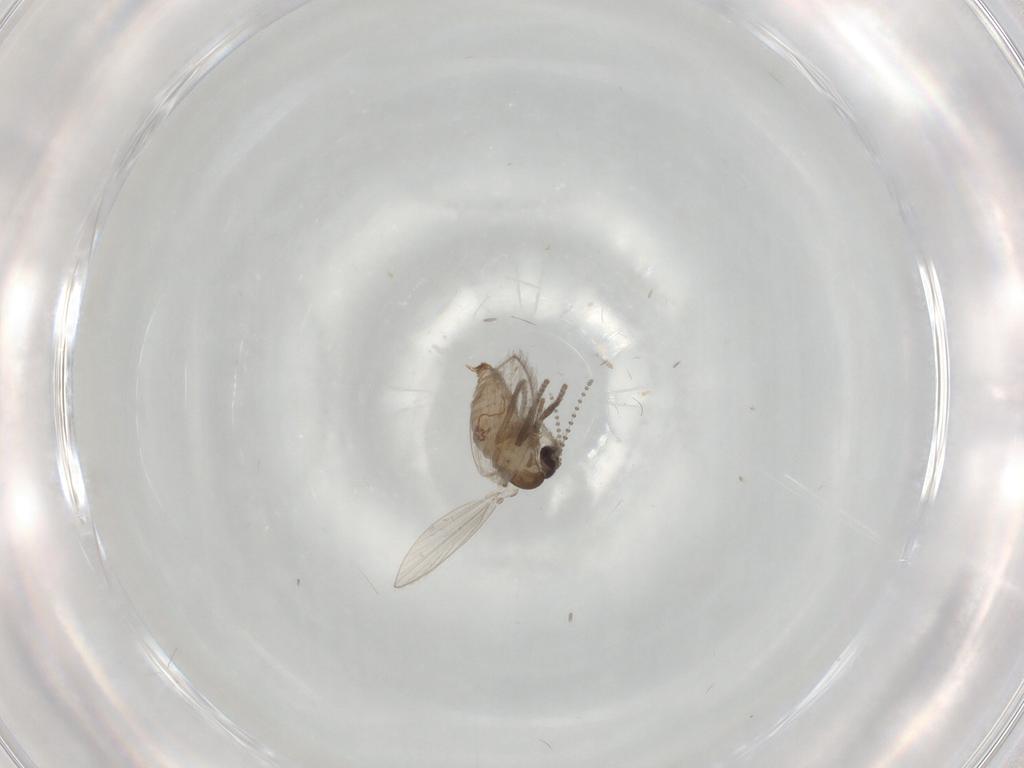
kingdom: Animalia
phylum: Arthropoda
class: Insecta
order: Diptera
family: Psychodidae
